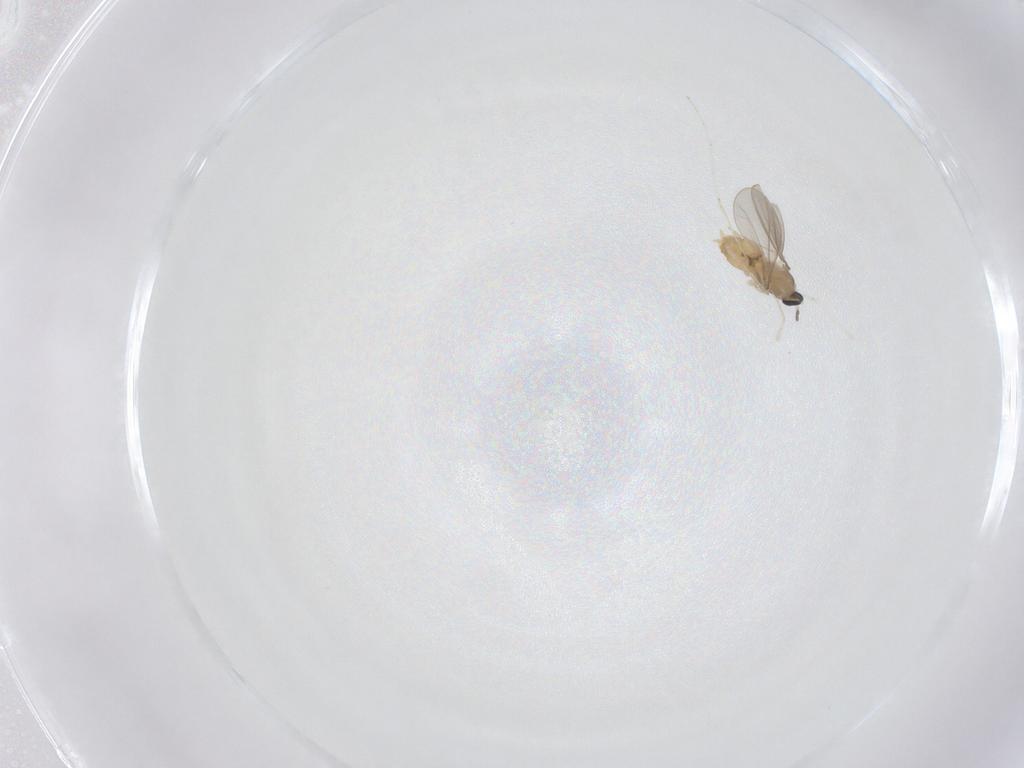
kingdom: Animalia
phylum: Arthropoda
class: Insecta
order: Diptera
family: Cecidomyiidae
